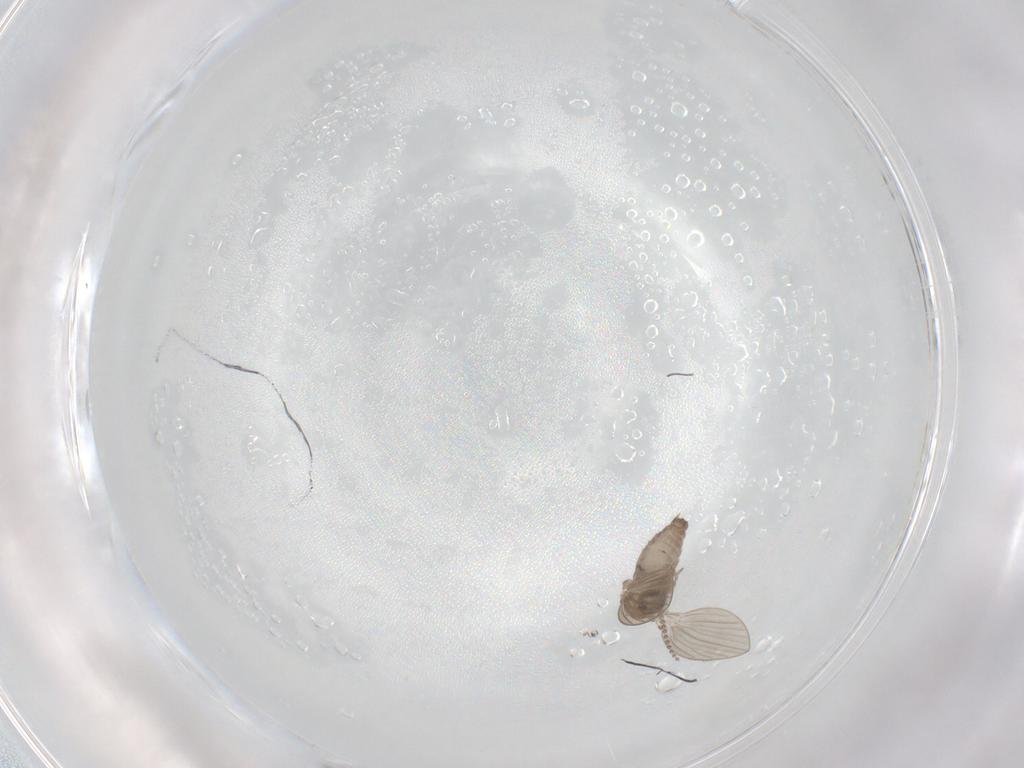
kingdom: Animalia
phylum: Arthropoda
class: Insecta
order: Diptera
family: Psychodidae
